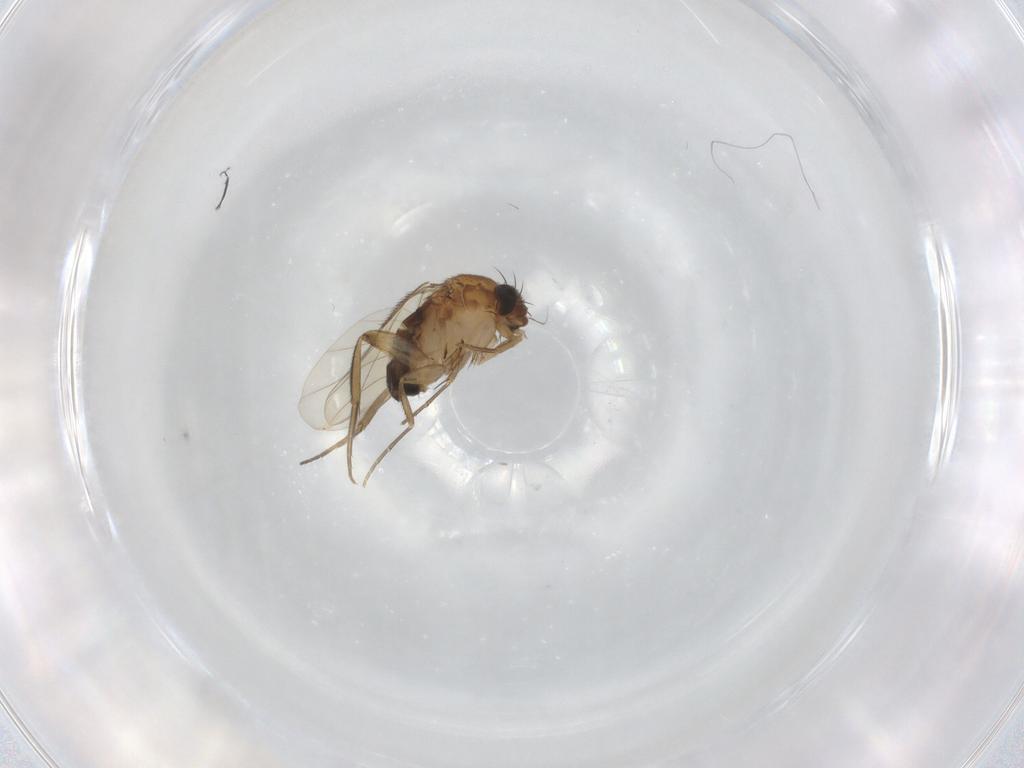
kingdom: Animalia
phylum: Arthropoda
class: Insecta
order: Diptera
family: Phoridae
